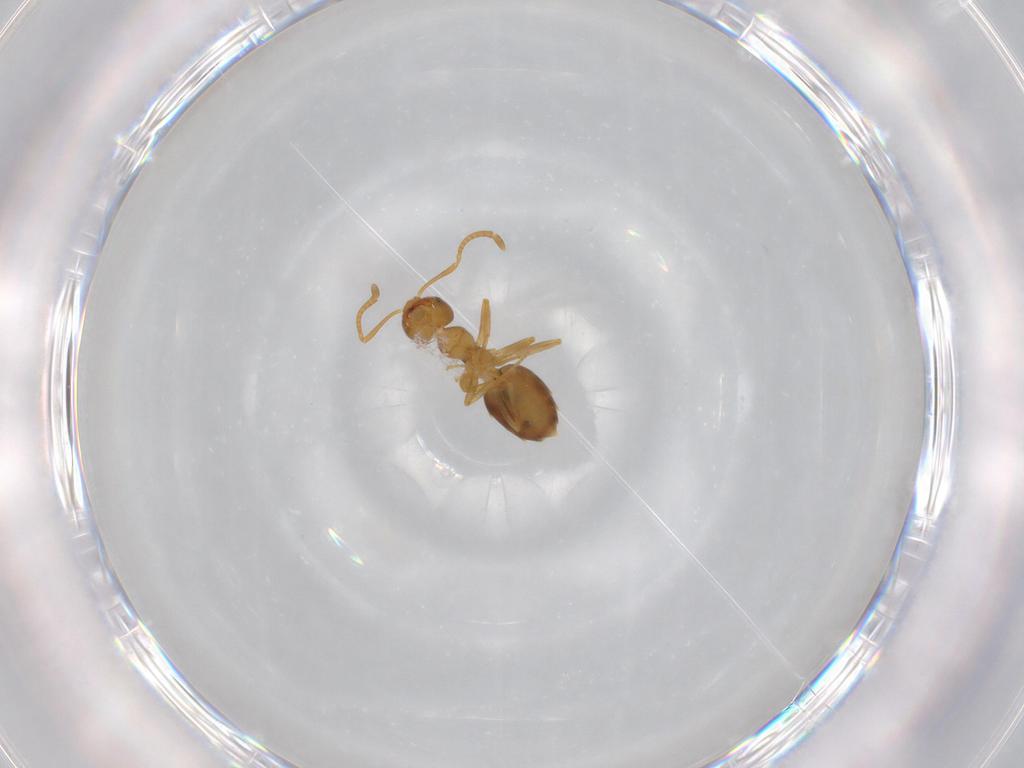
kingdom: Animalia
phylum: Arthropoda
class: Insecta
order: Hymenoptera
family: Formicidae
